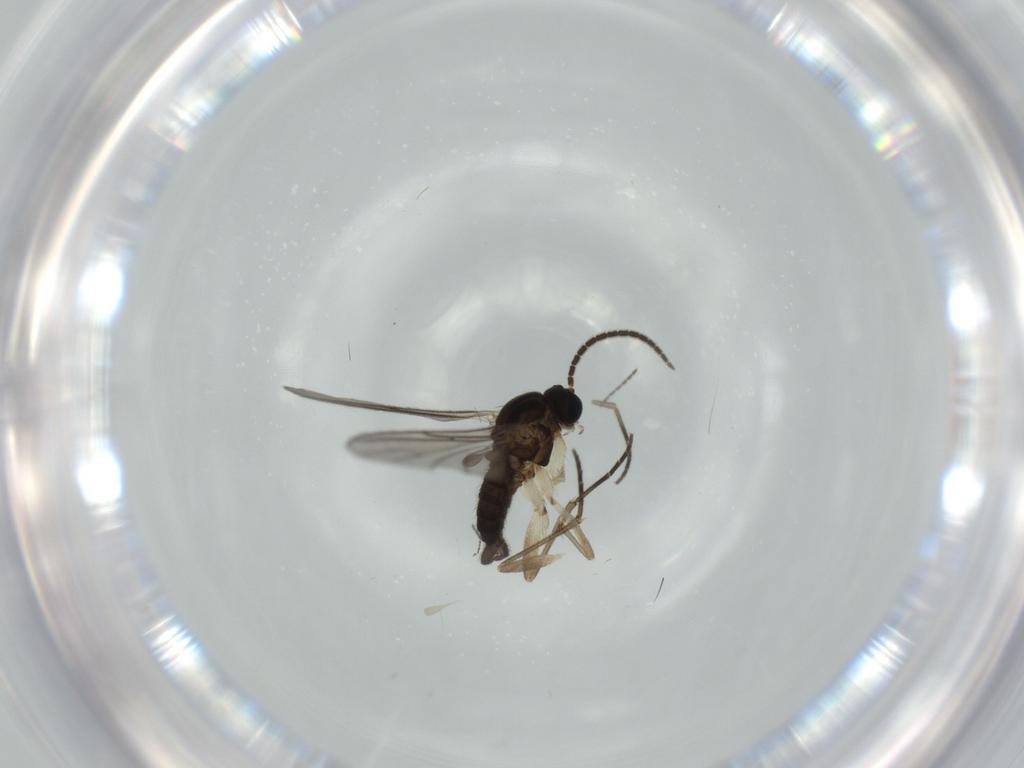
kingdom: Animalia
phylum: Arthropoda
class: Insecta
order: Diptera
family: Sciaridae
